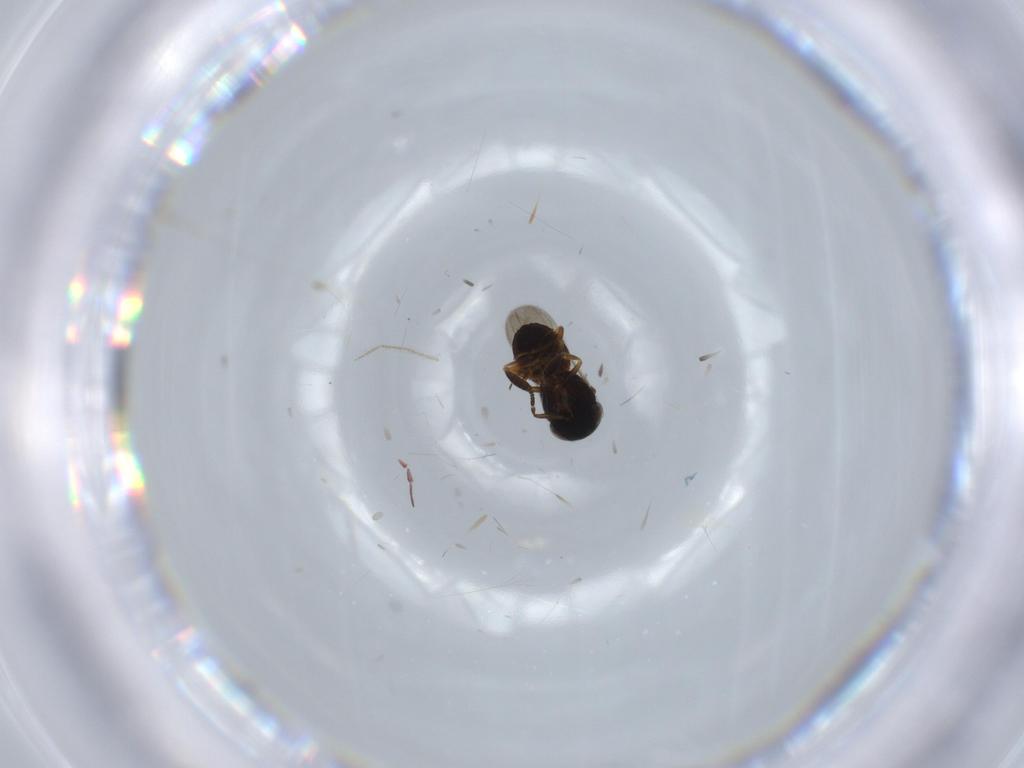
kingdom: Animalia
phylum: Arthropoda
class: Insecta
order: Coleoptera
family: Curculionidae
